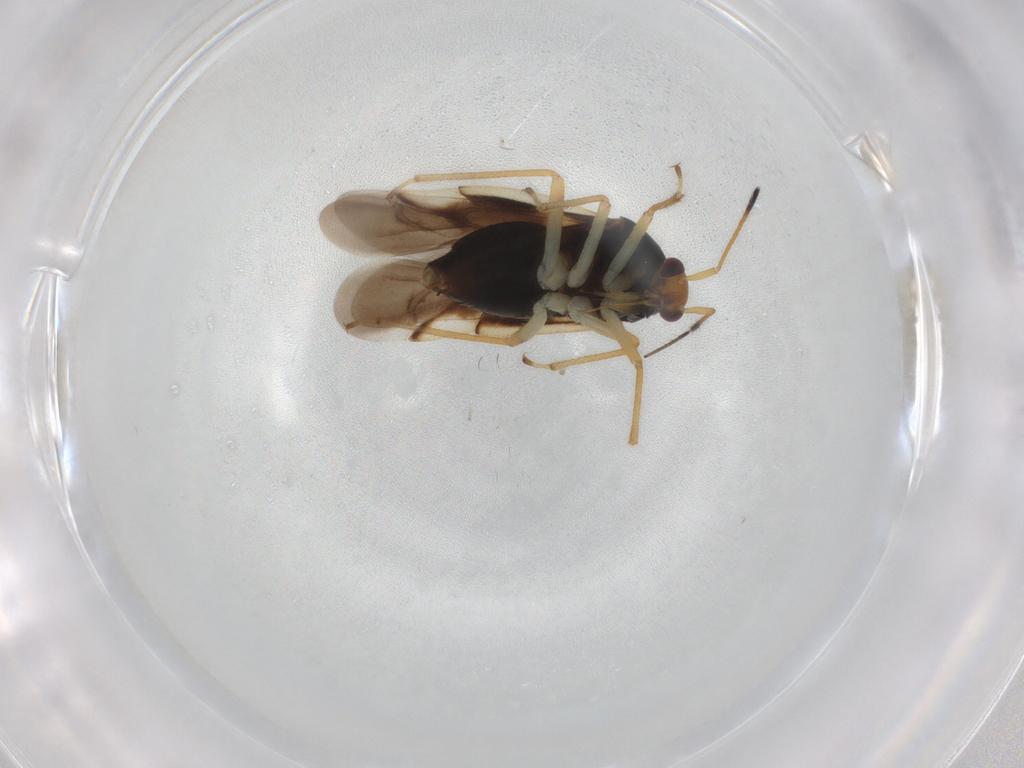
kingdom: Animalia
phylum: Arthropoda
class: Insecta
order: Hemiptera
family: Miridae
